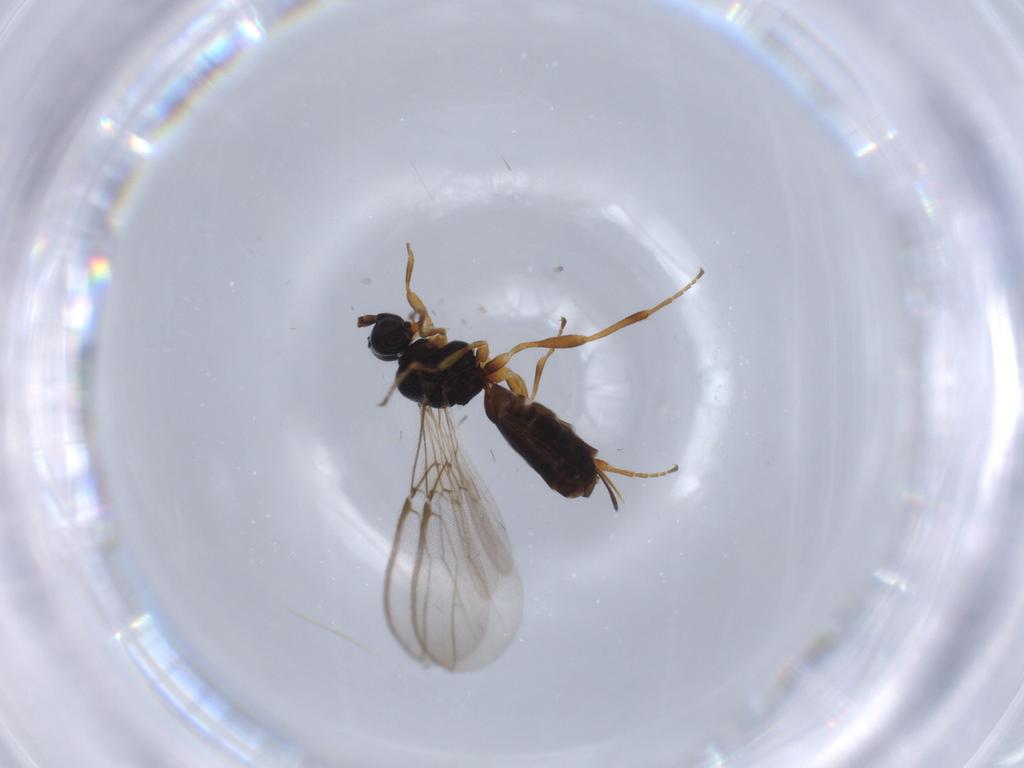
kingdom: Animalia
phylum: Arthropoda
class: Insecta
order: Hymenoptera
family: Braconidae
